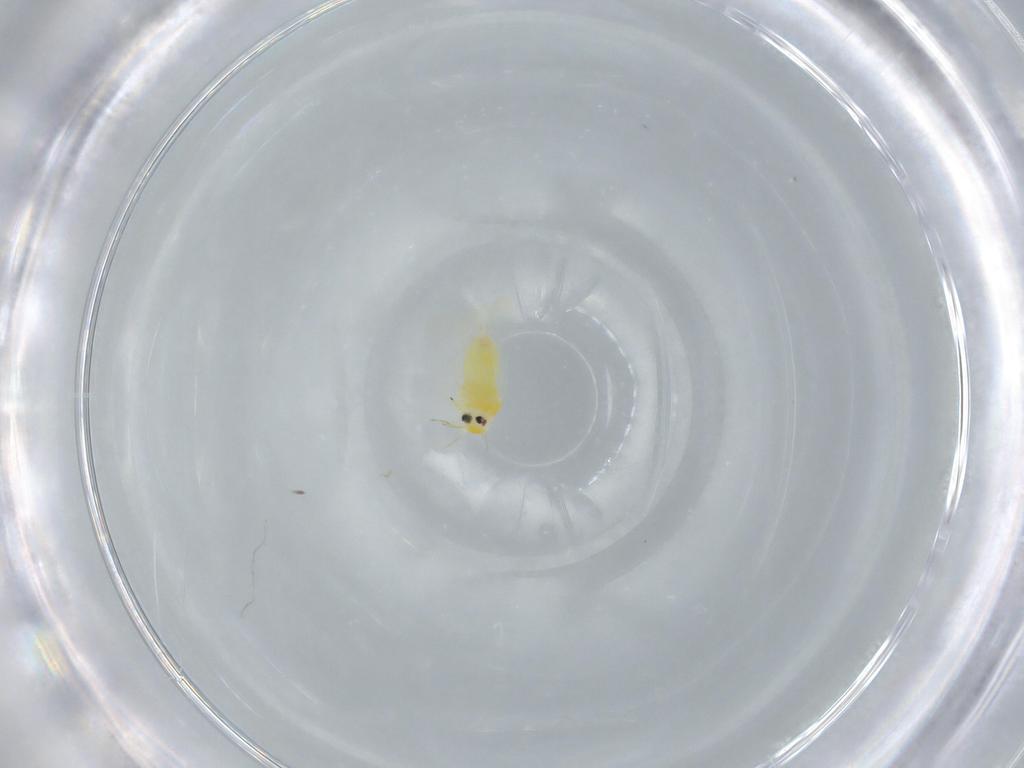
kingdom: Animalia
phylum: Arthropoda
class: Insecta
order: Hemiptera
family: Aleyrodidae
